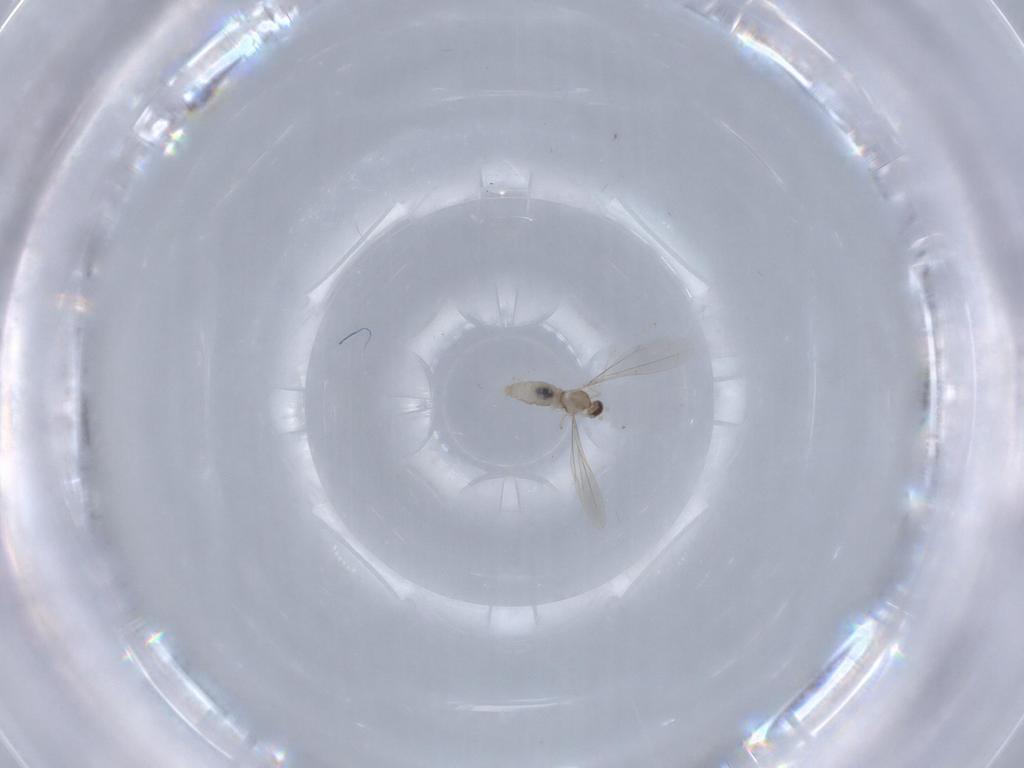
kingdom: Animalia
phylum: Arthropoda
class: Insecta
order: Diptera
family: Cecidomyiidae
